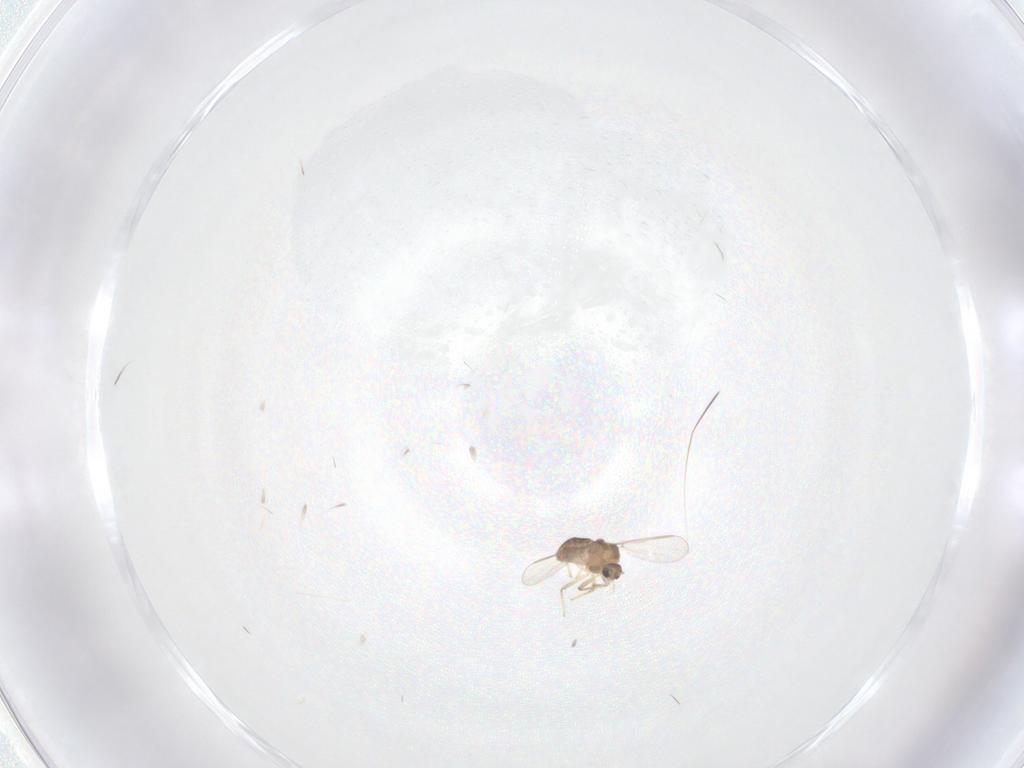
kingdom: Animalia
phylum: Arthropoda
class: Insecta
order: Diptera
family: Chironomidae
